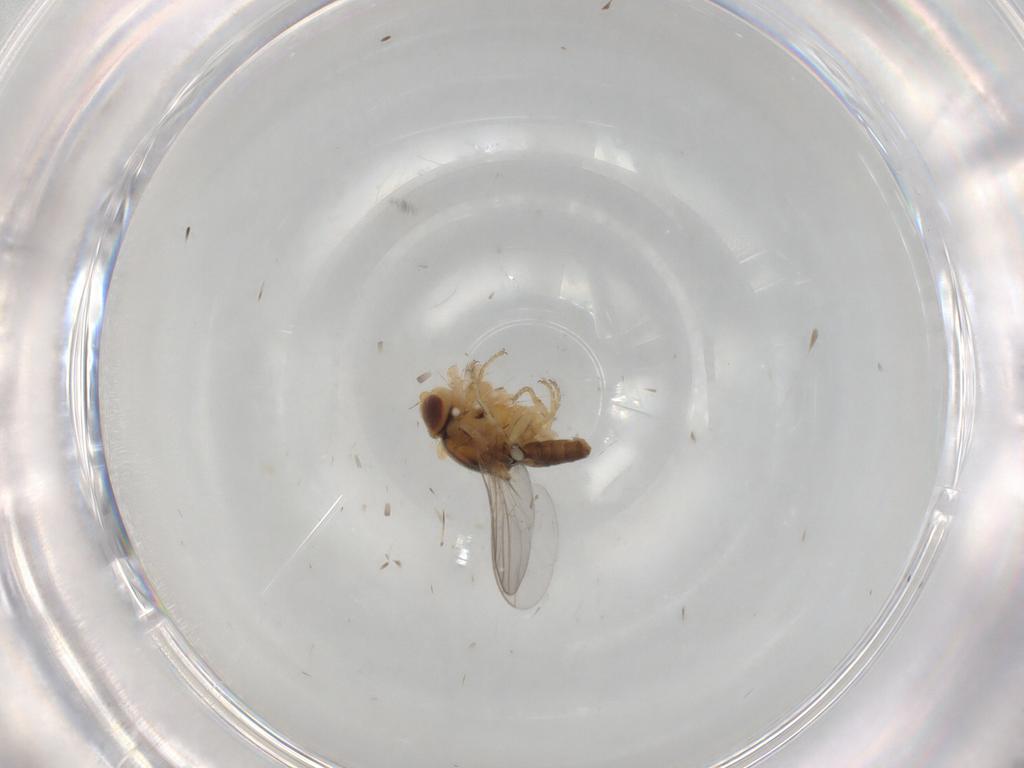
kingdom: Animalia
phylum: Arthropoda
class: Insecta
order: Diptera
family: Chloropidae
